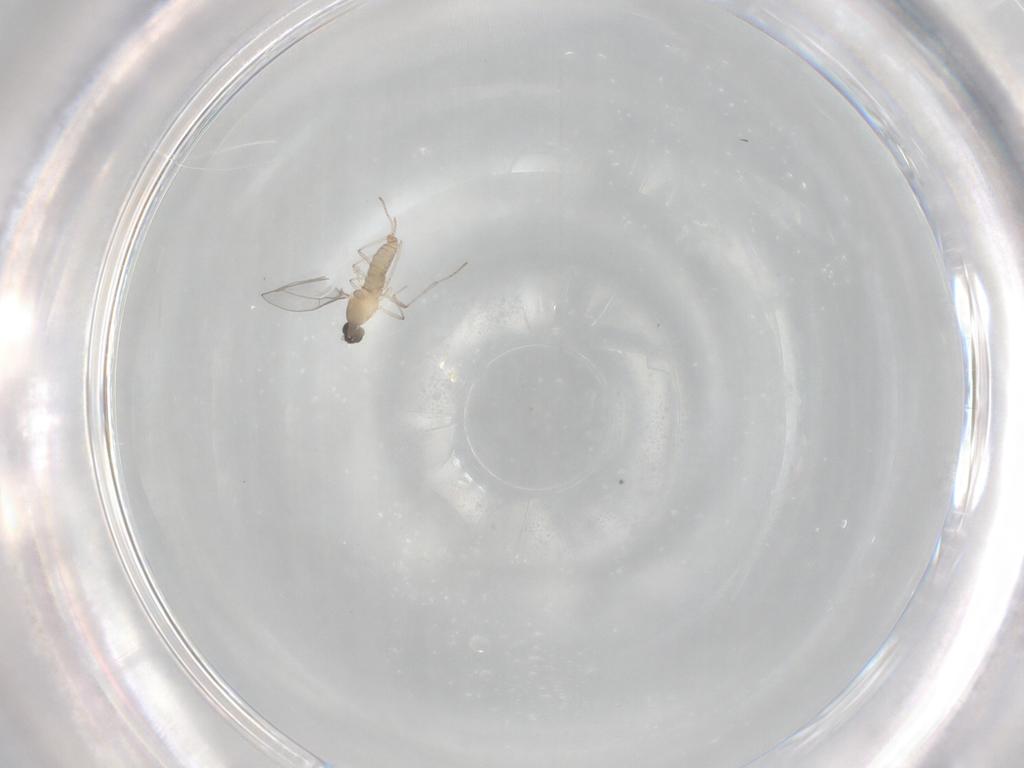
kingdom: Animalia
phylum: Arthropoda
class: Insecta
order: Diptera
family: Cecidomyiidae
